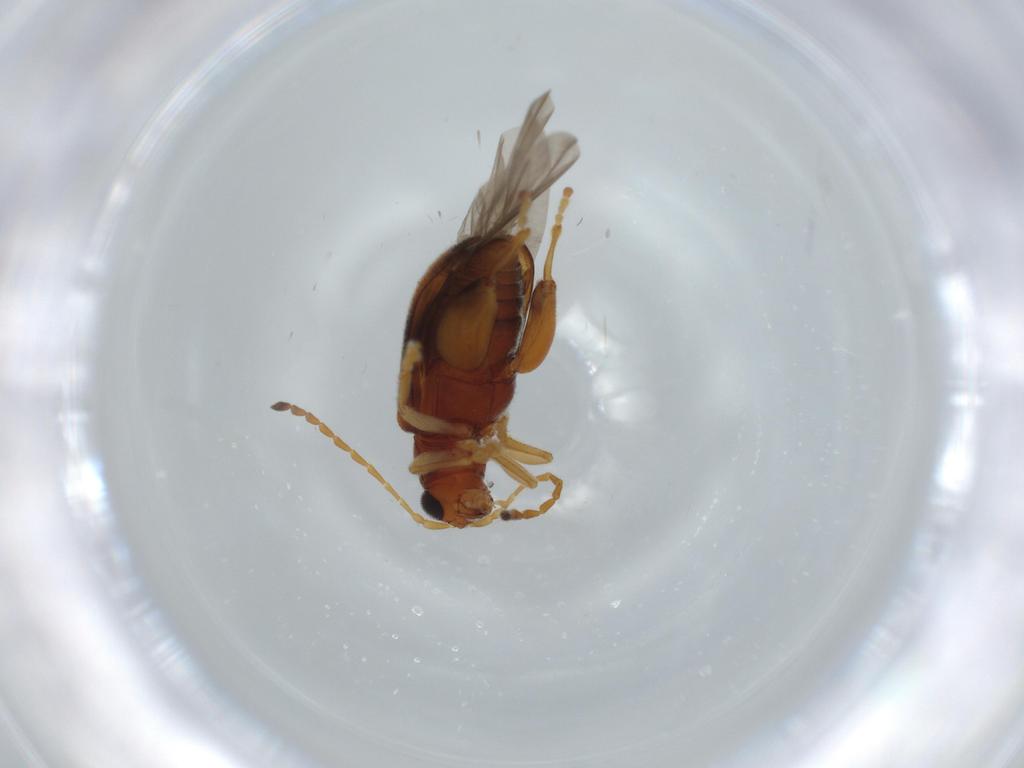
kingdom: Animalia
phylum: Arthropoda
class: Insecta
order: Coleoptera
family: Chrysomelidae
